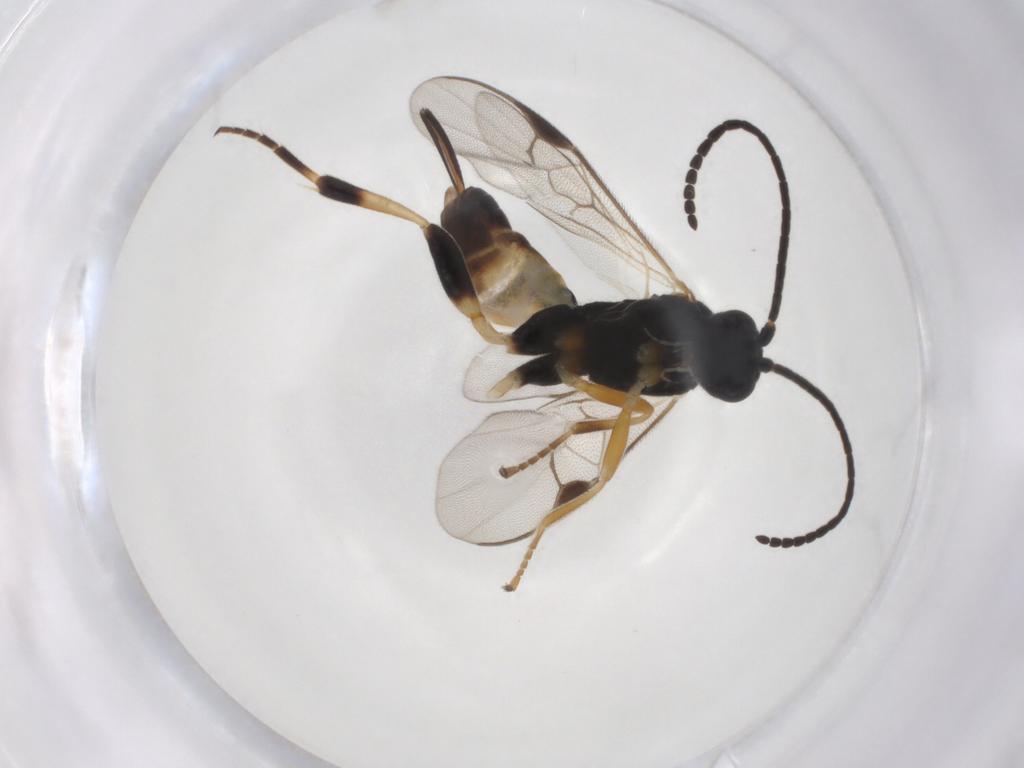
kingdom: Animalia
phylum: Arthropoda
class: Insecta
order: Hymenoptera
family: Braconidae
